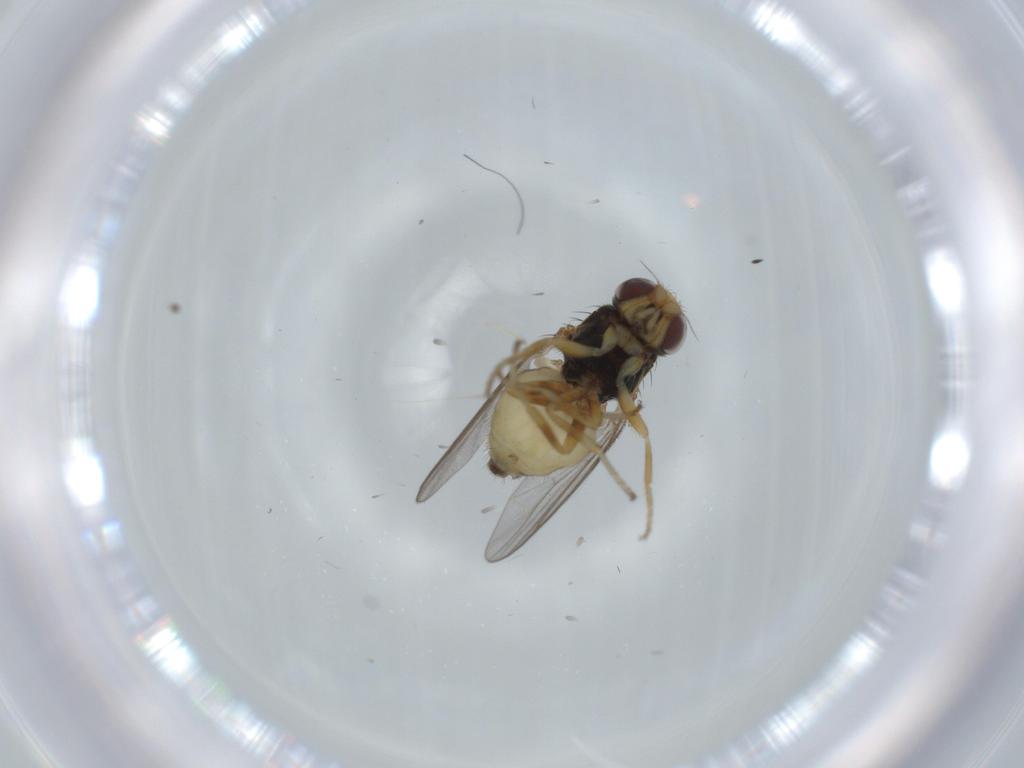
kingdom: Animalia
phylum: Arthropoda
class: Insecta
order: Diptera
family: Chloropidae
